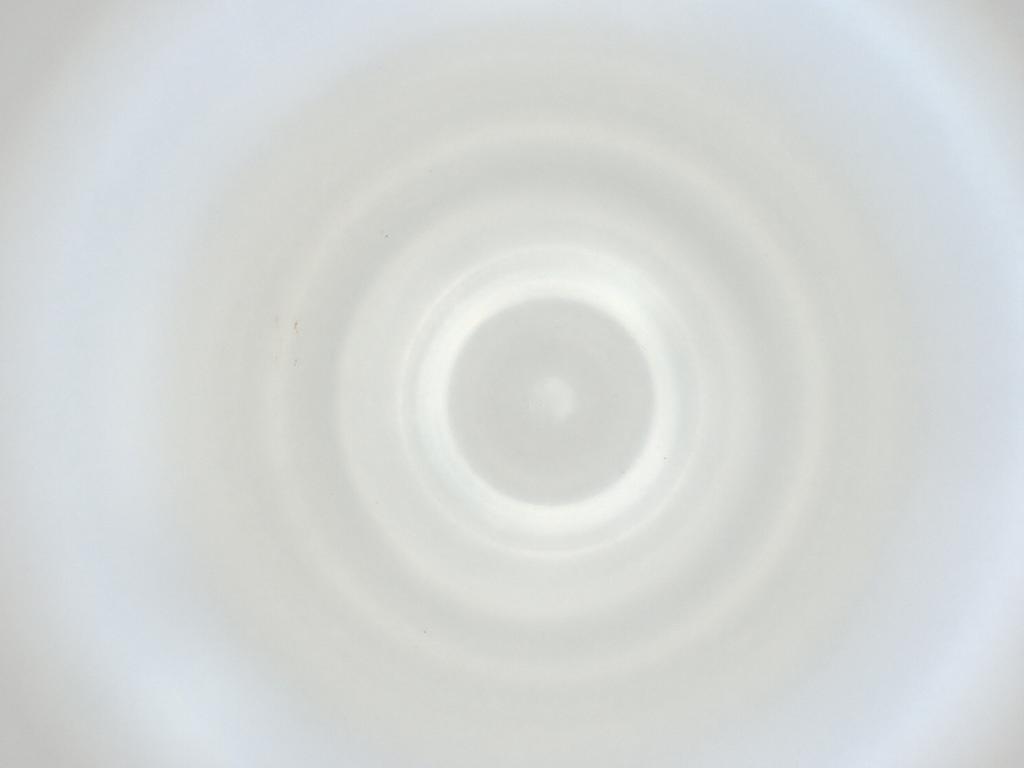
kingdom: Animalia
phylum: Arthropoda
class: Insecta
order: Diptera
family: Cecidomyiidae
